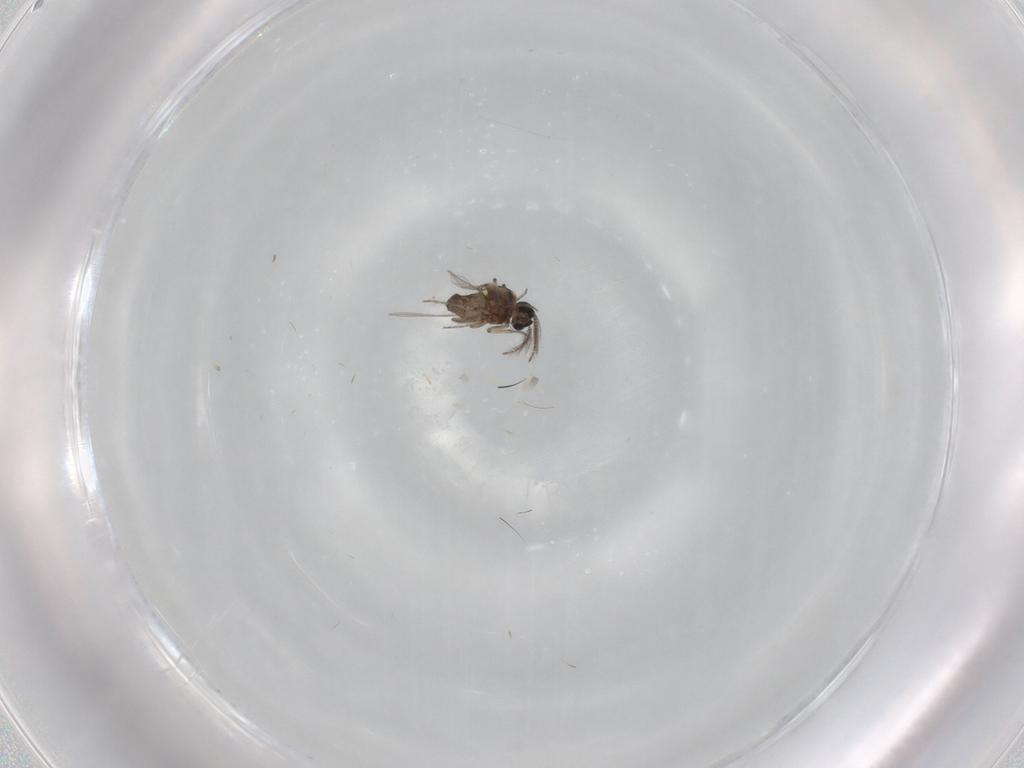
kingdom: Animalia
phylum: Arthropoda
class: Insecta
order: Diptera
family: Ceratopogonidae
